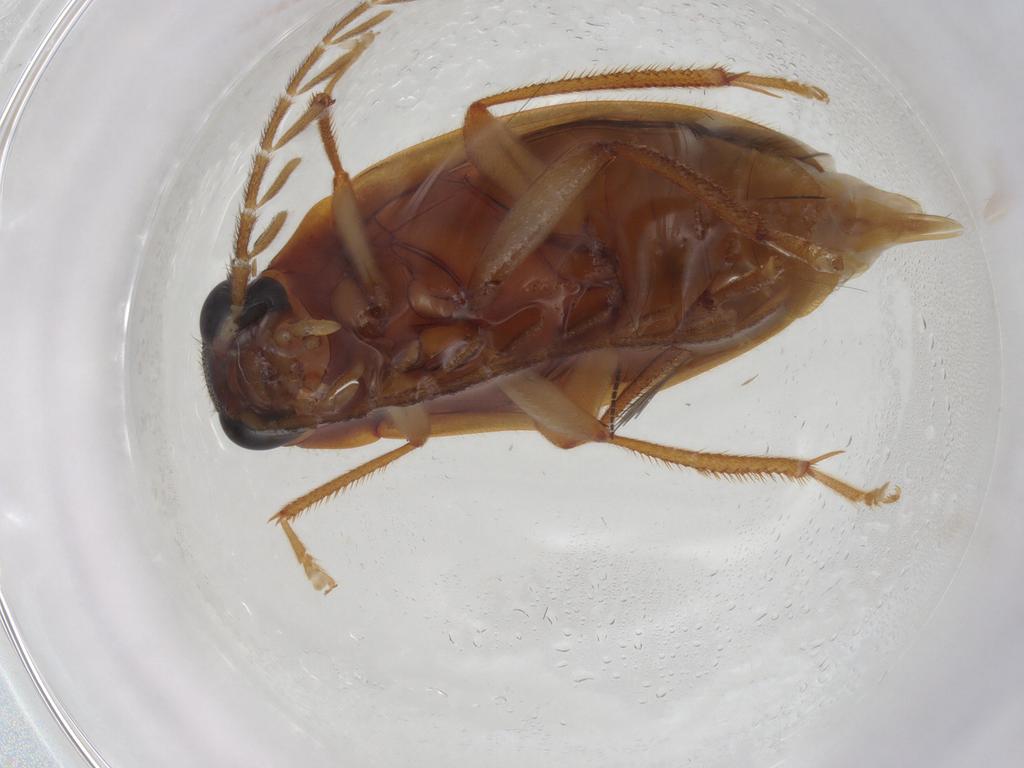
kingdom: Animalia
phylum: Arthropoda
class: Insecta
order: Coleoptera
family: Ptilodactylidae
